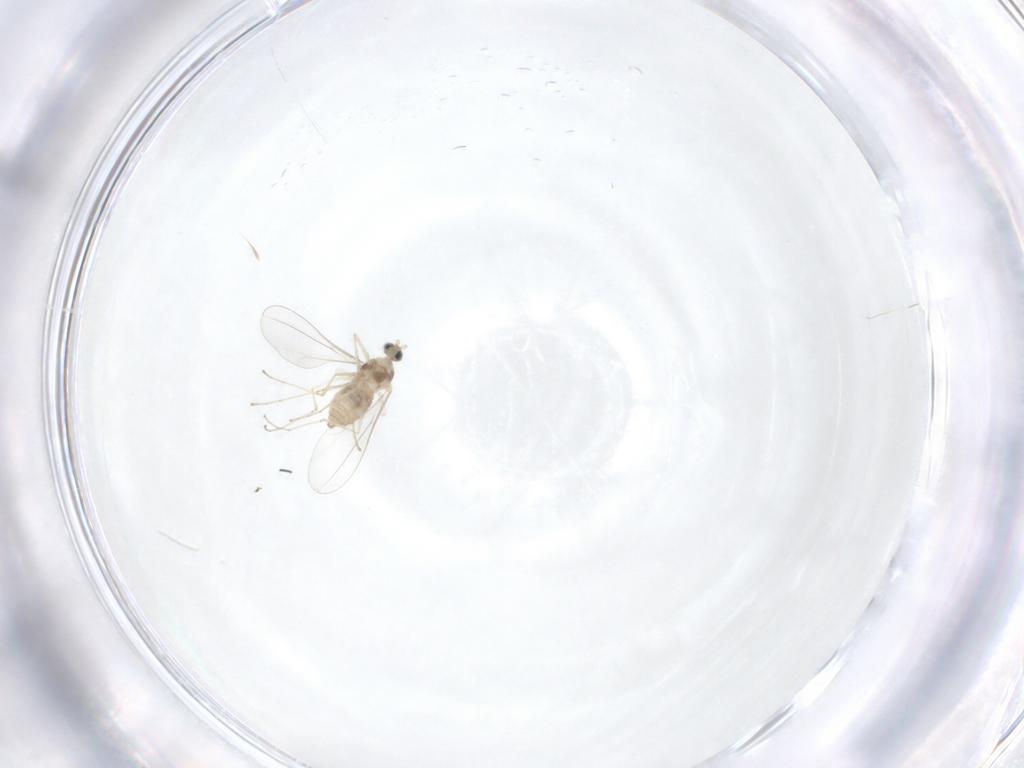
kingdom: Animalia
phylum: Arthropoda
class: Insecta
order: Diptera
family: Cecidomyiidae
